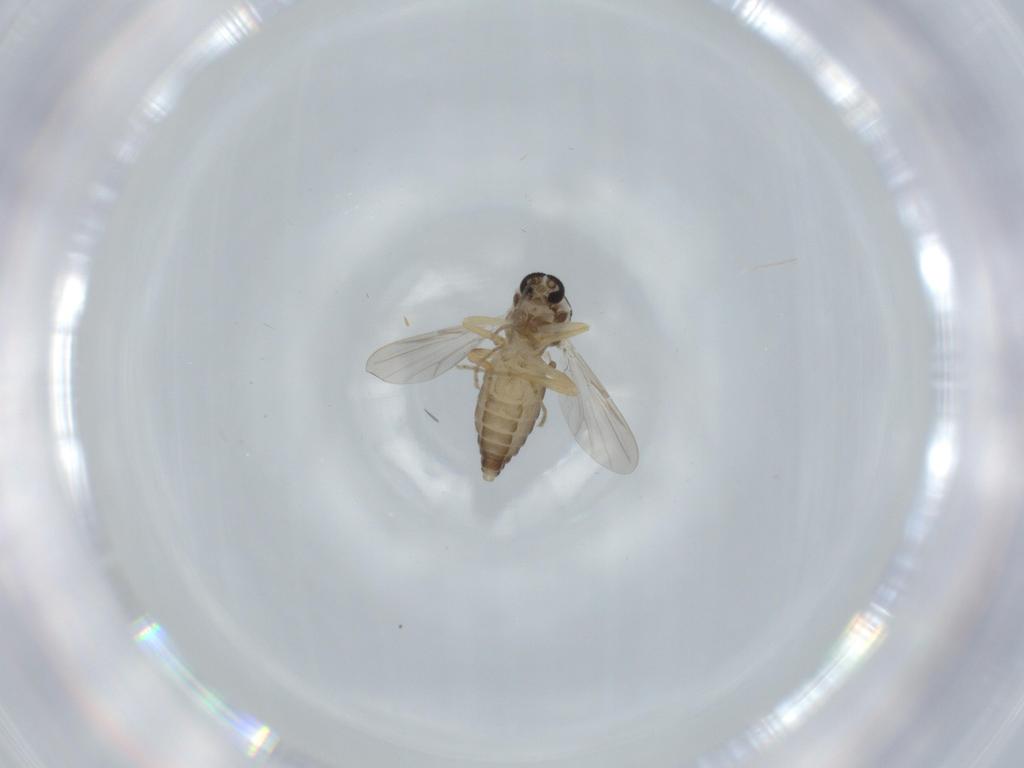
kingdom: Animalia
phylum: Arthropoda
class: Insecta
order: Diptera
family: Ceratopogonidae
